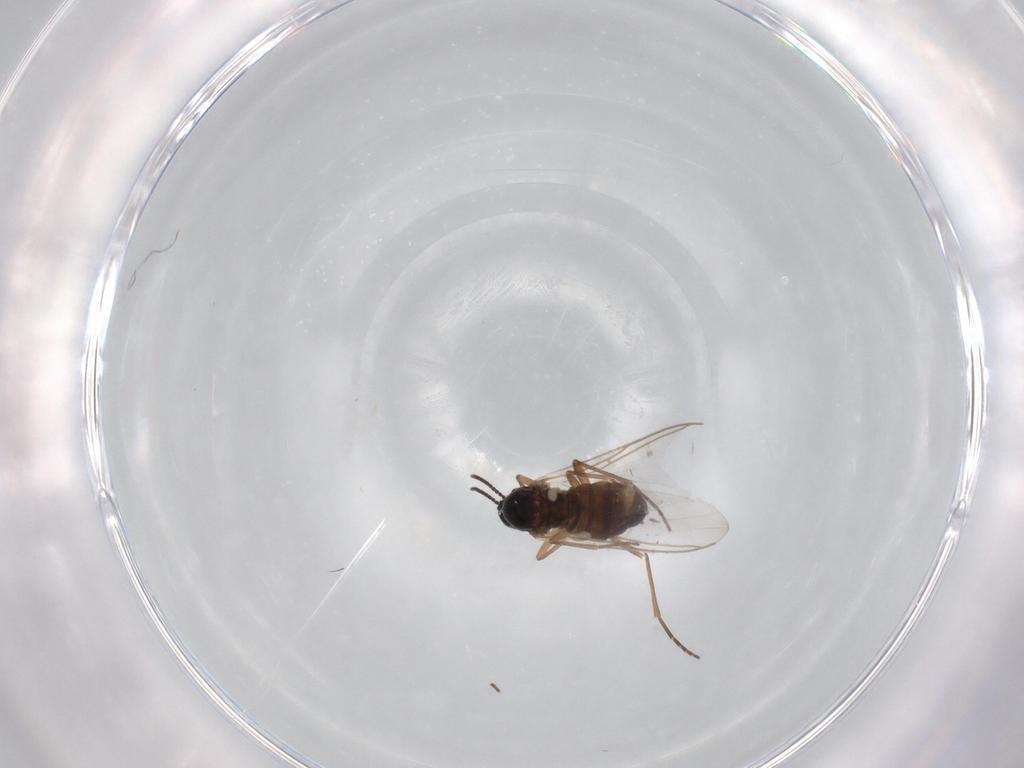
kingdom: Animalia
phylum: Arthropoda
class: Insecta
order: Diptera
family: Sciaridae
